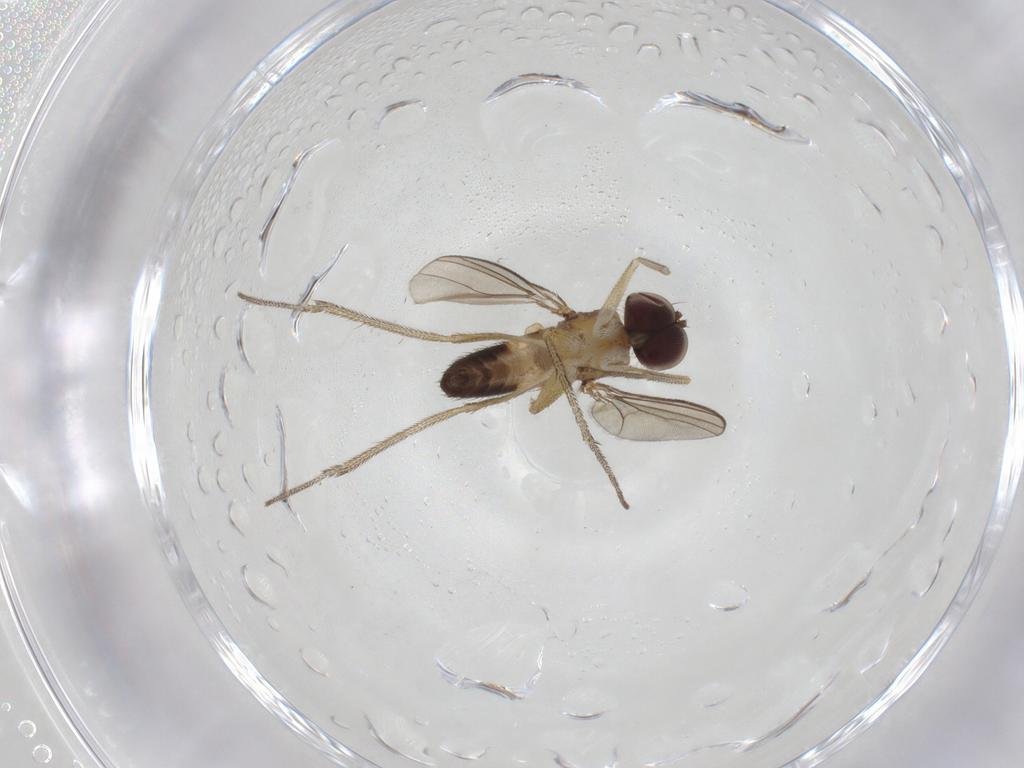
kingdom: Animalia
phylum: Arthropoda
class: Insecta
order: Diptera
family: Dolichopodidae
